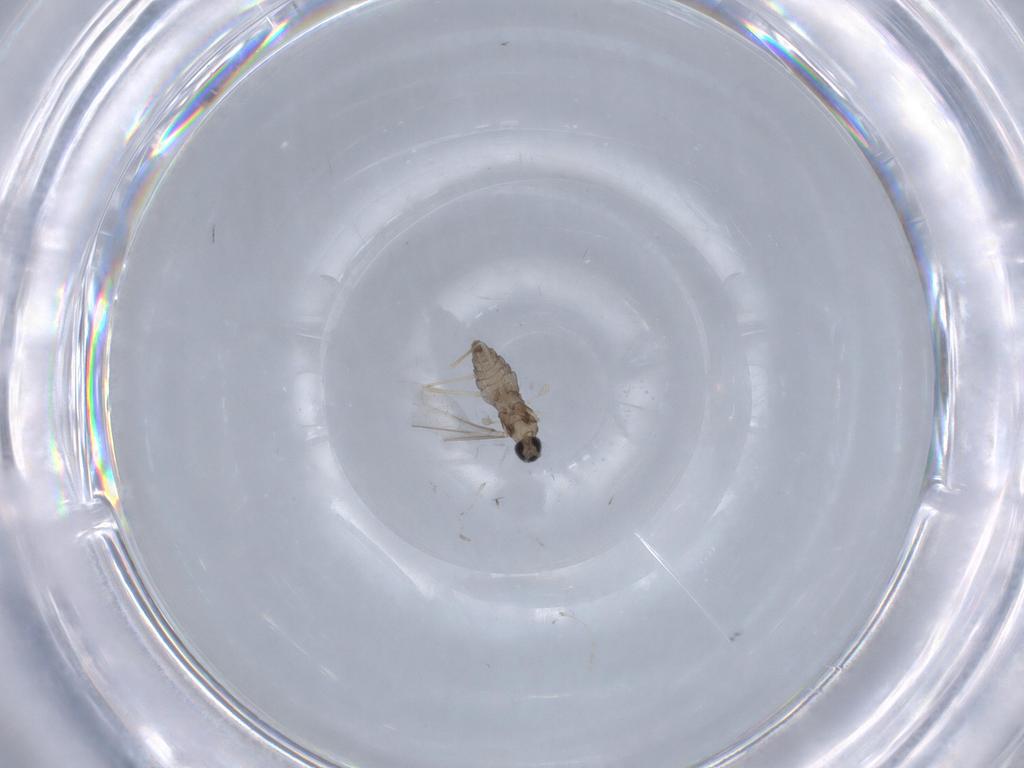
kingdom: Animalia
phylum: Arthropoda
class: Insecta
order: Diptera
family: Cecidomyiidae
